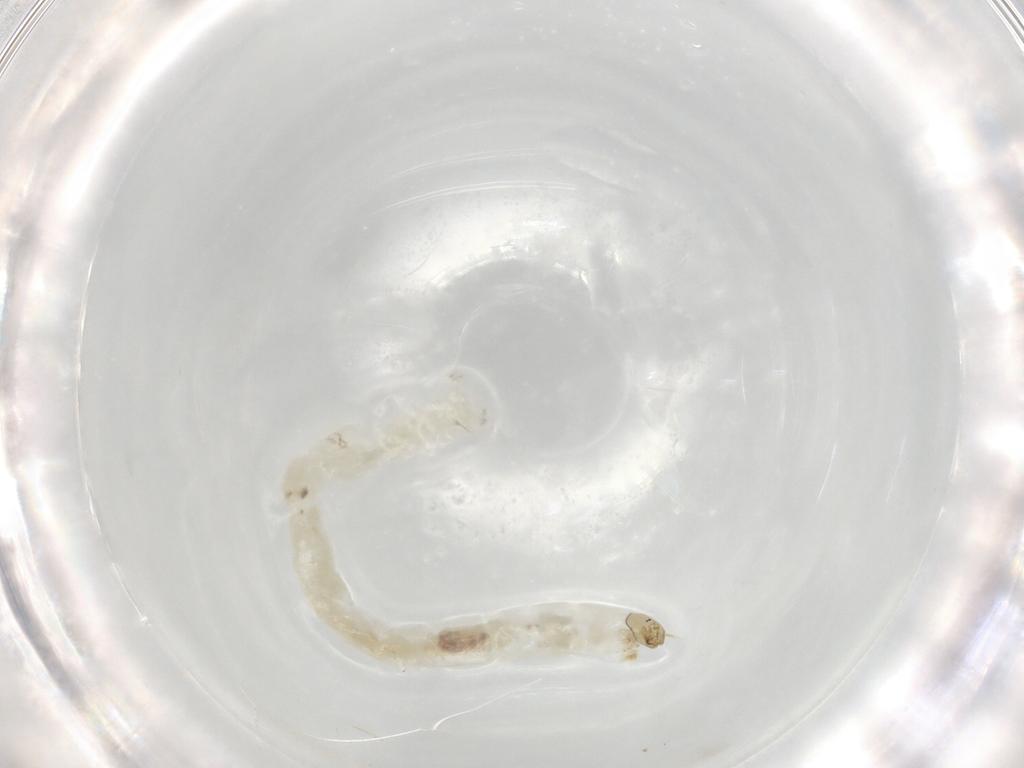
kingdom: Animalia
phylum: Arthropoda
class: Insecta
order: Diptera
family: Chironomidae
